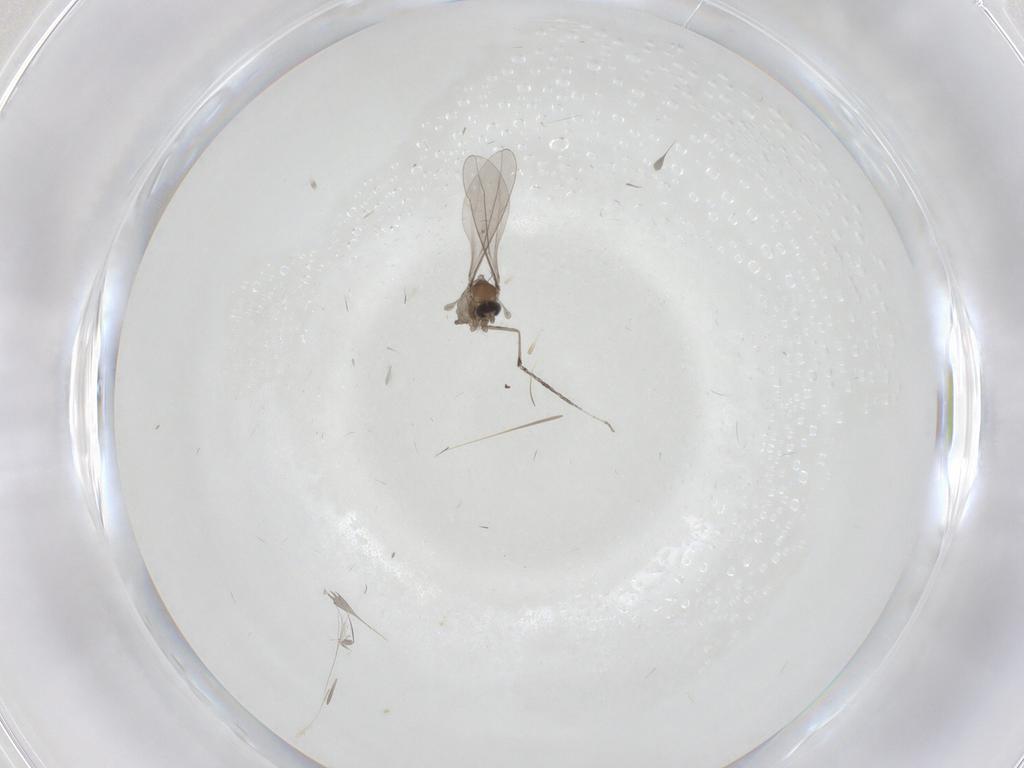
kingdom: Animalia
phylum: Arthropoda
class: Insecta
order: Diptera
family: Cecidomyiidae
